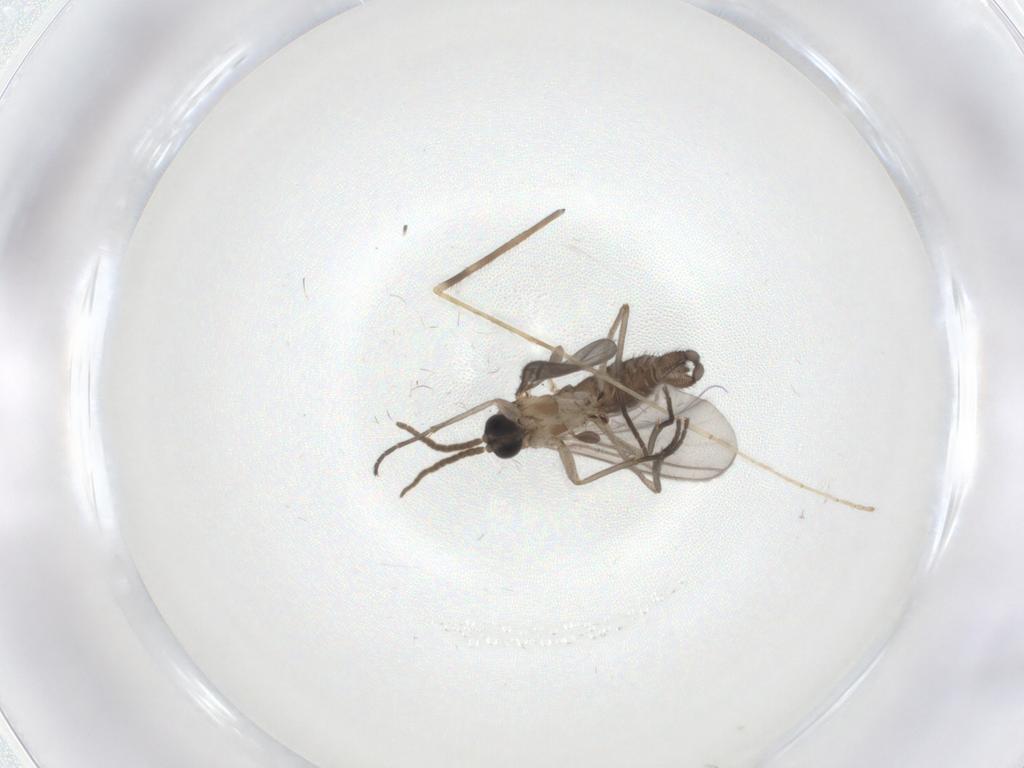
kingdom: Animalia
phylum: Arthropoda
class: Insecta
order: Diptera
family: Limoniidae
